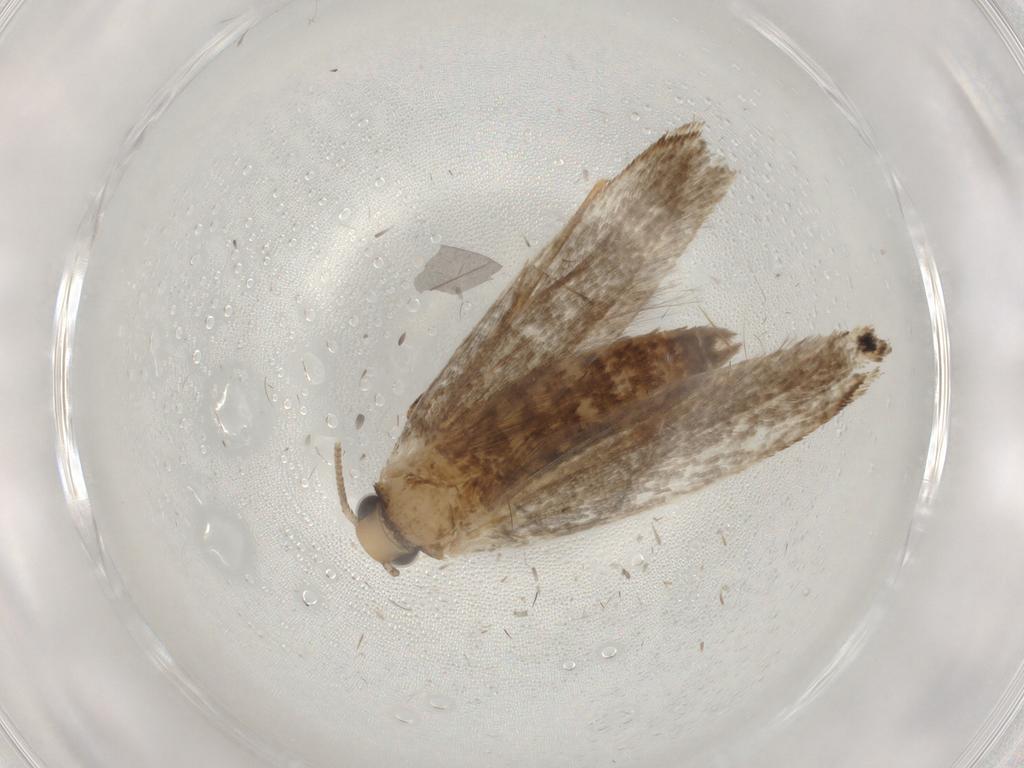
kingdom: Animalia
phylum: Arthropoda
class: Insecta
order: Lepidoptera
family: Tineidae
